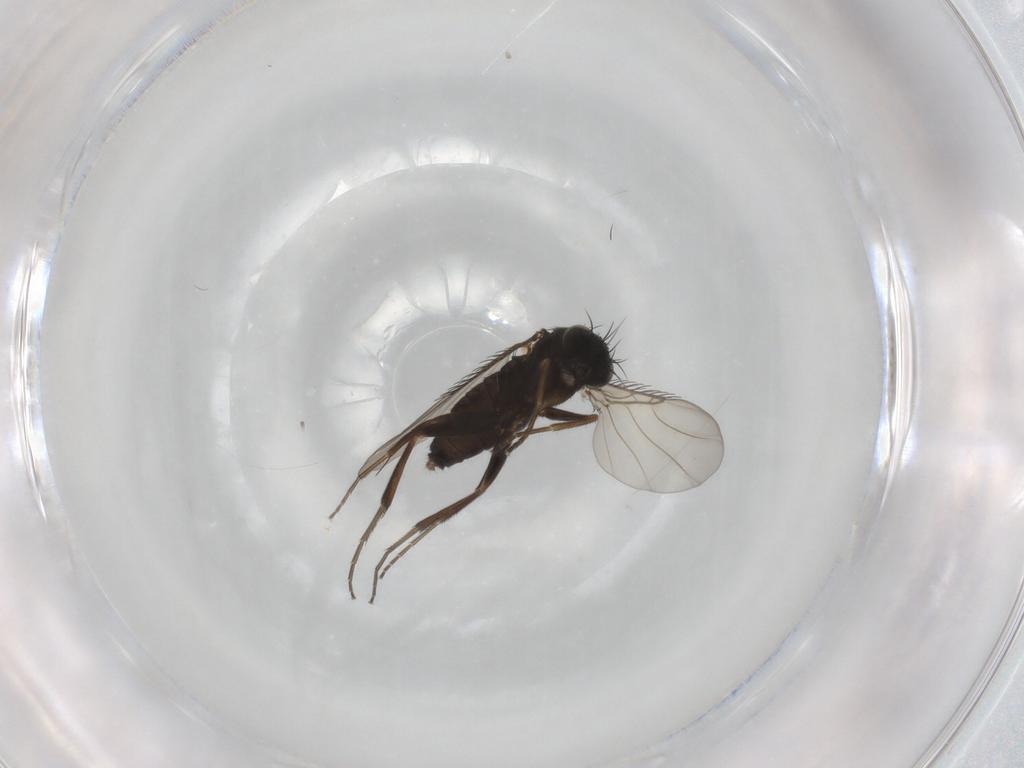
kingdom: Animalia
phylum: Arthropoda
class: Insecta
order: Diptera
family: Phoridae
